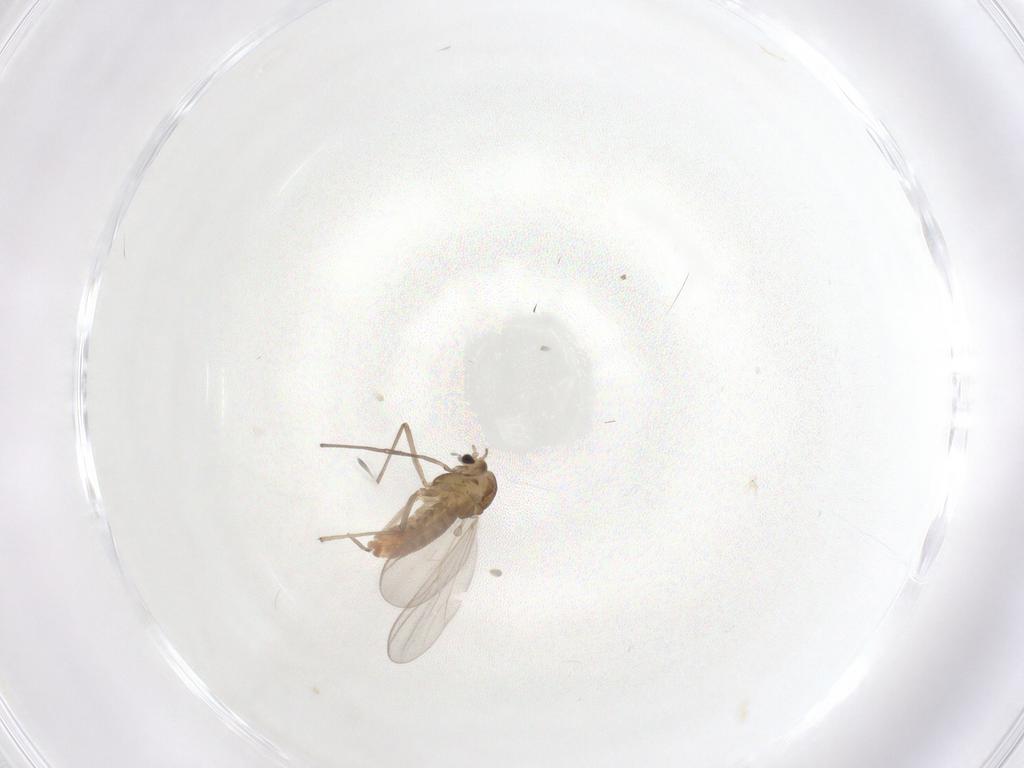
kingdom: Animalia
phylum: Arthropoda
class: Insecta
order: Diptera
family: Chironomidae
